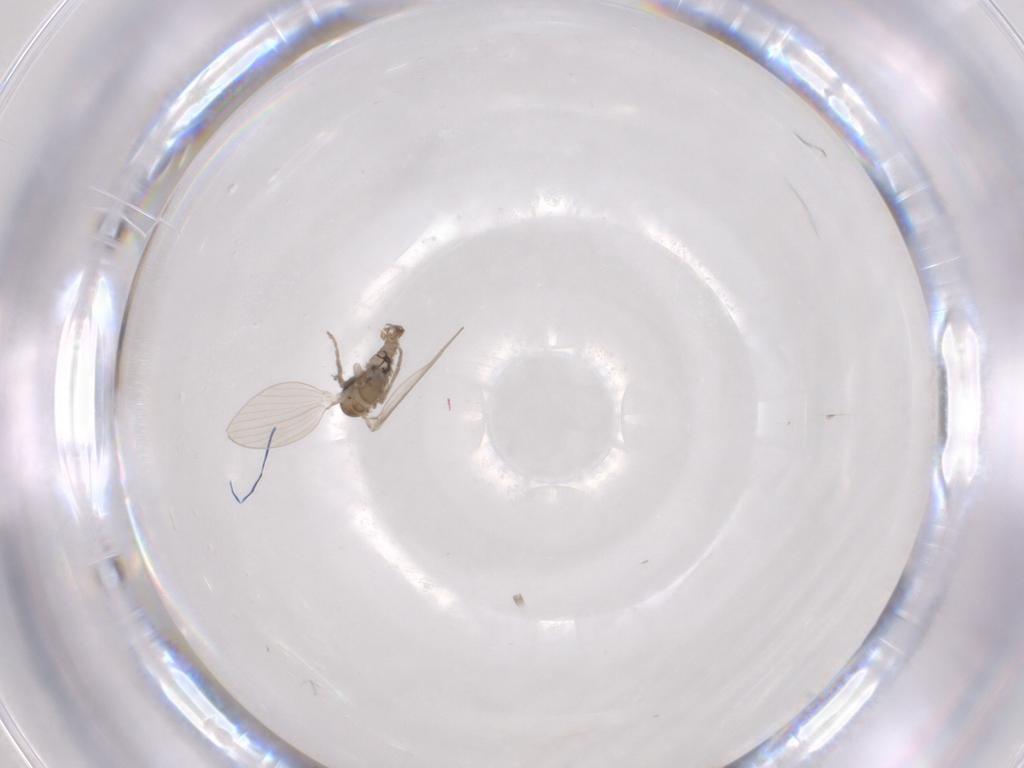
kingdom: Animalia
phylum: Arthropoda
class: Insecta
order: Diptera
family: Psychodidae
